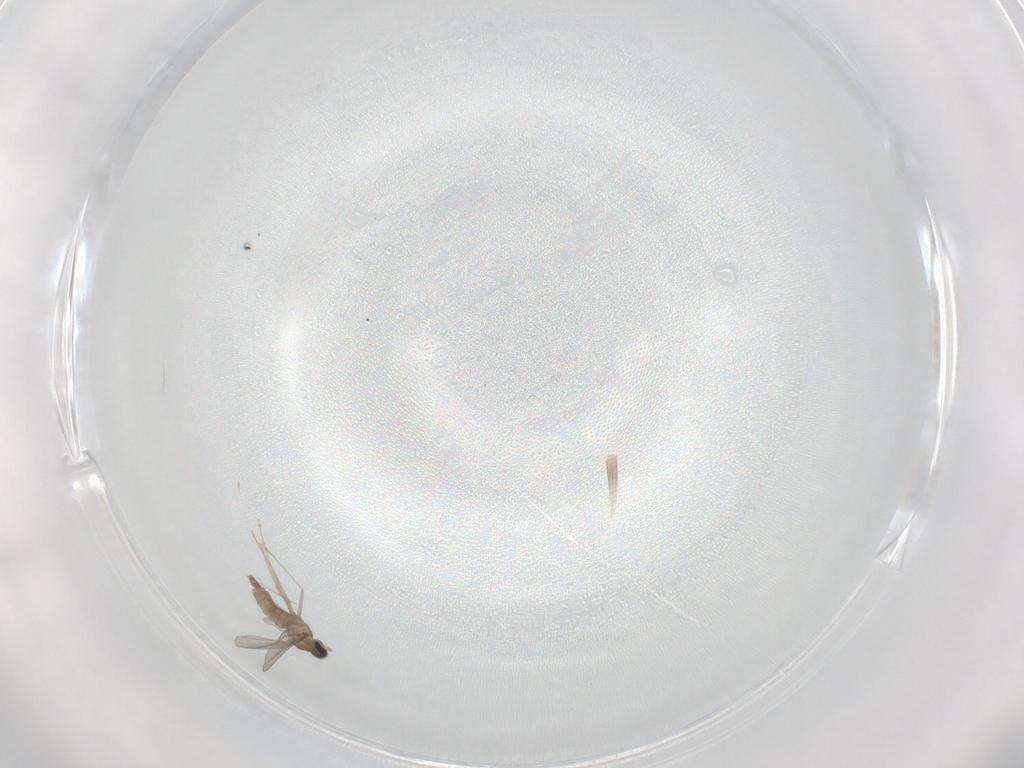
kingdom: Animalia
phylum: Arthropoda
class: Insecta
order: Diptera
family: Cecidomyiidae
